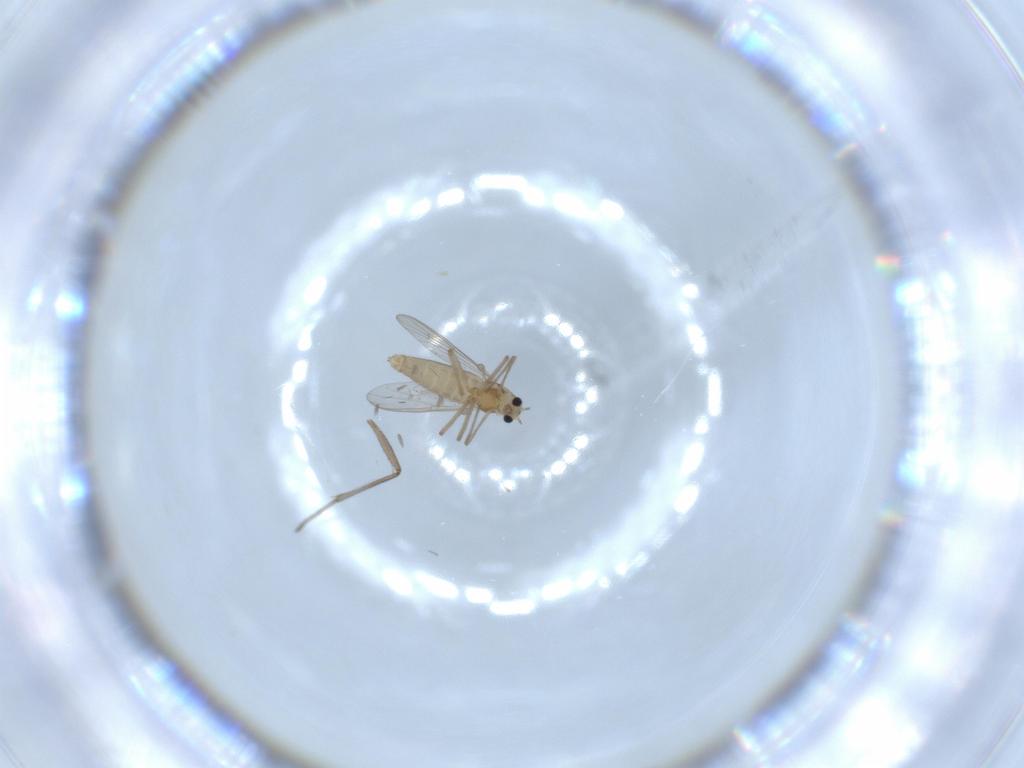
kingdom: Animalia
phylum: Arthropoda
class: Insecta
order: Diptera
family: Chironomidae
